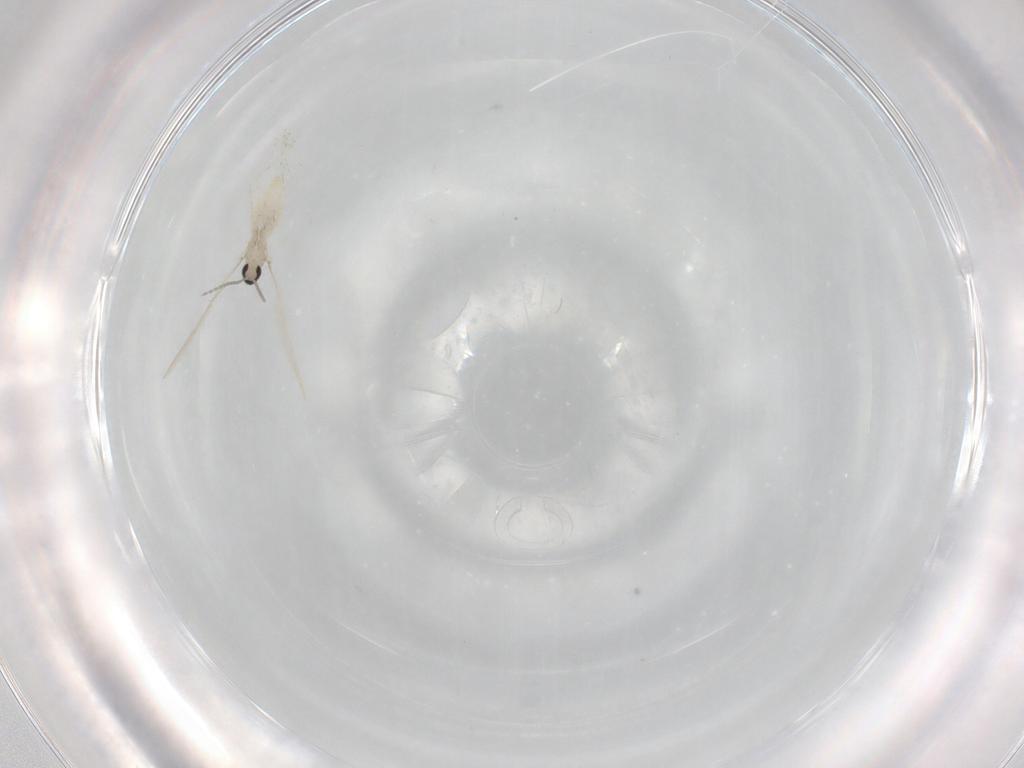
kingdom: Animalia
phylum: Arthropoda
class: Insecta
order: Diptera
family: Cecidomyiidae
